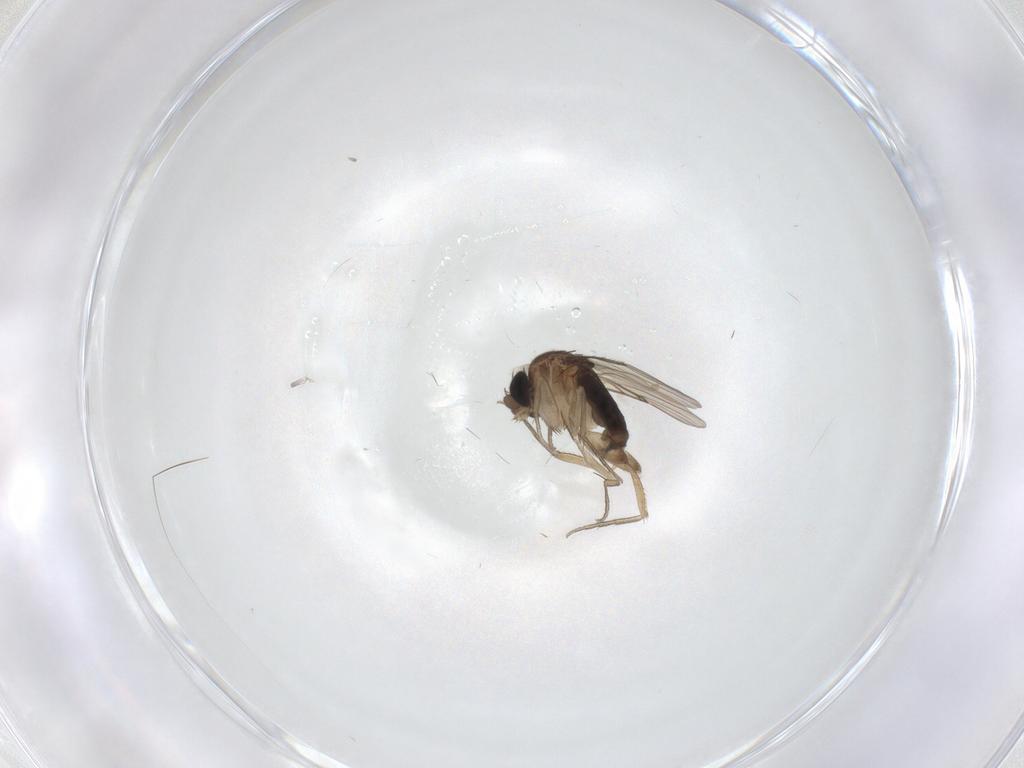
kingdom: Animalia
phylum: Arthropoda
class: Insecta
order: Diptera
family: Phoridae
